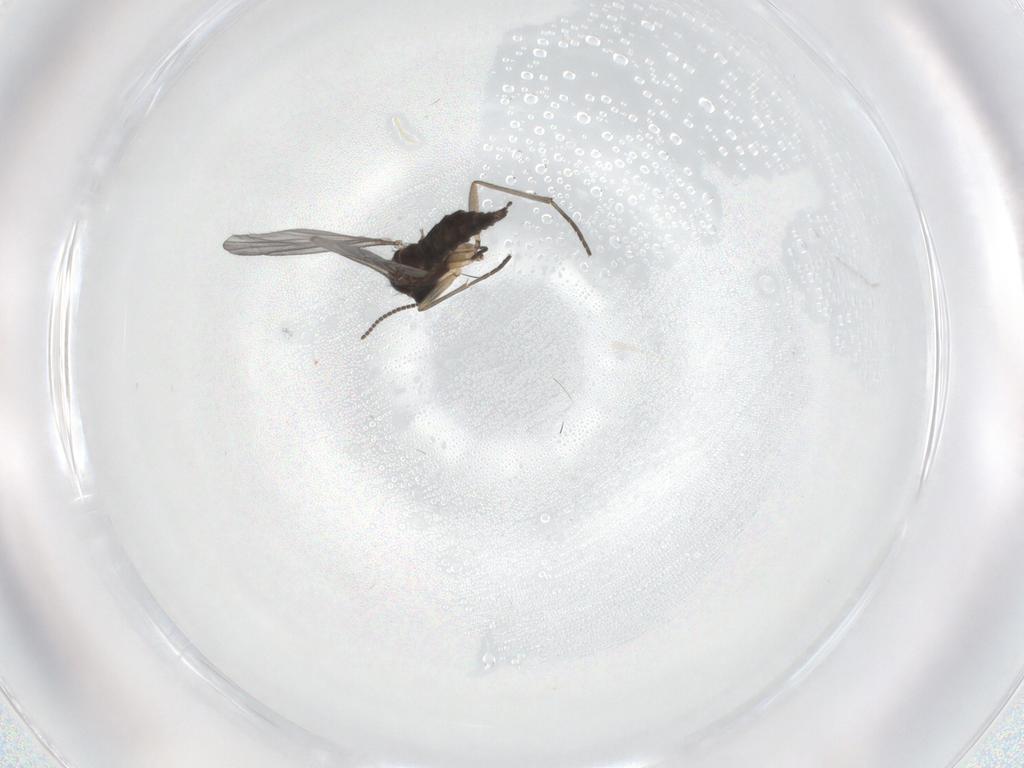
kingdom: Animalia
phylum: Arthropoda
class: Insecta
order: Diptera
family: Sciaridae
